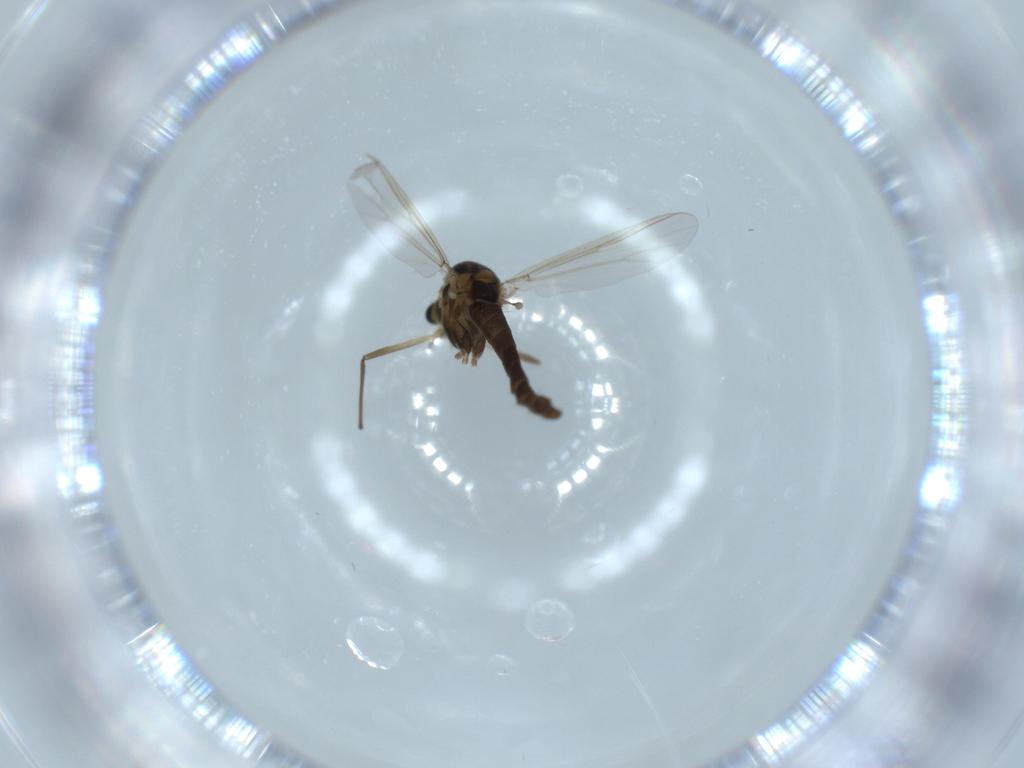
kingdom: Animalia
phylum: Arthropoda
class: Insecta
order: Diptera
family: Chironomidae
